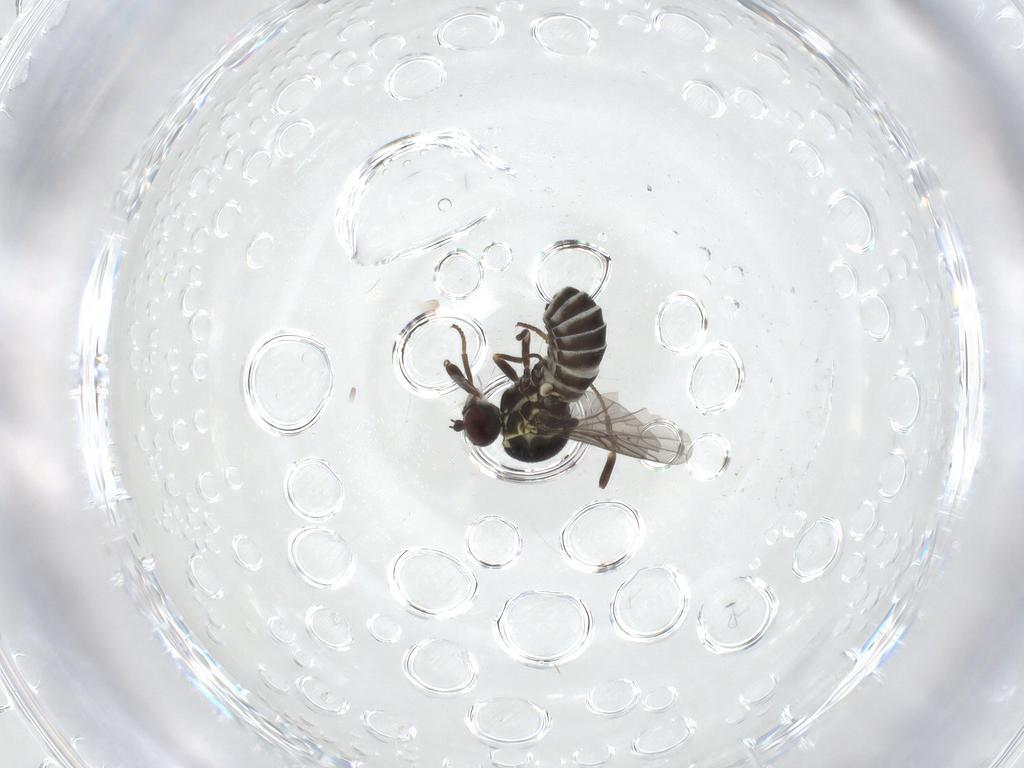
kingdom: Animalia
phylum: Arthropoda
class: Insecta
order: Diptera
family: Bombyliidae
